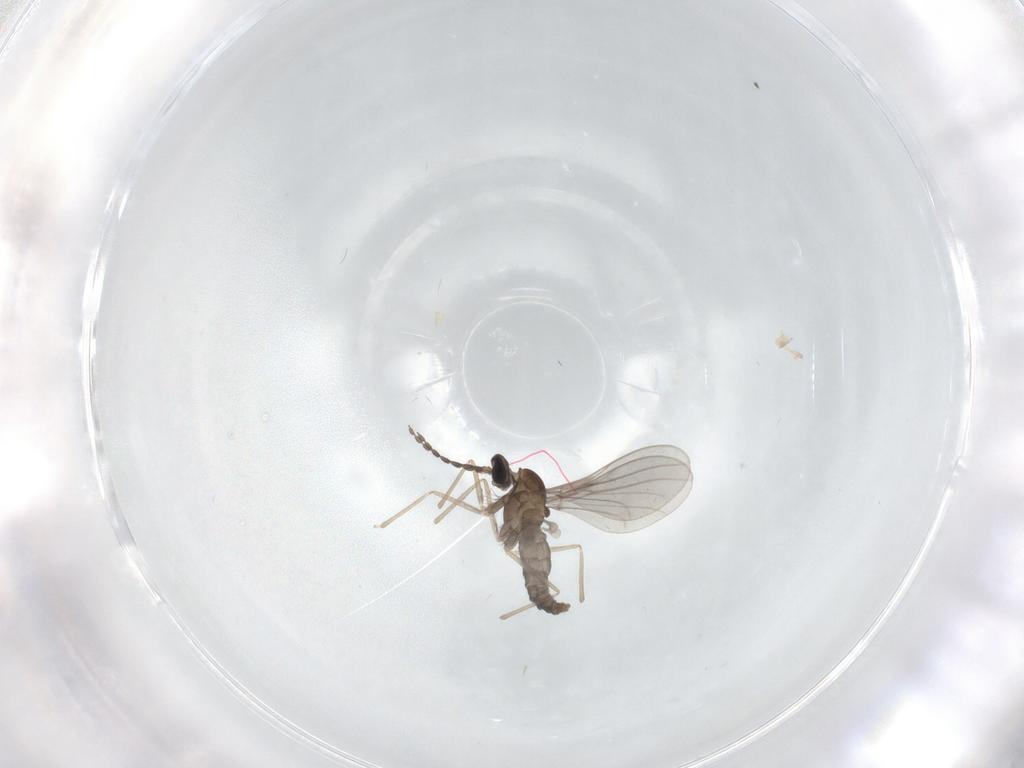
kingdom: Animalia
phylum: Arthropoda
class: Insecta
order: Diptera
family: Cecidomyiidae
